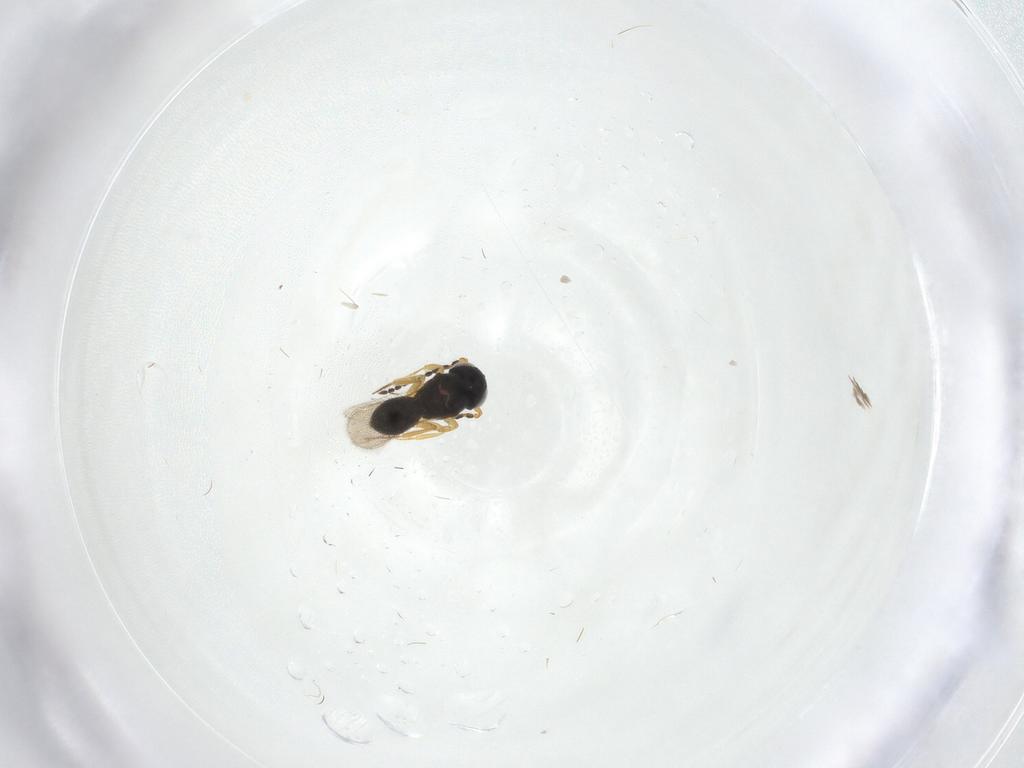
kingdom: Animalia
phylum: Arthropoda
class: Insecta
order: Hymenoptera
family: Scelionidae
